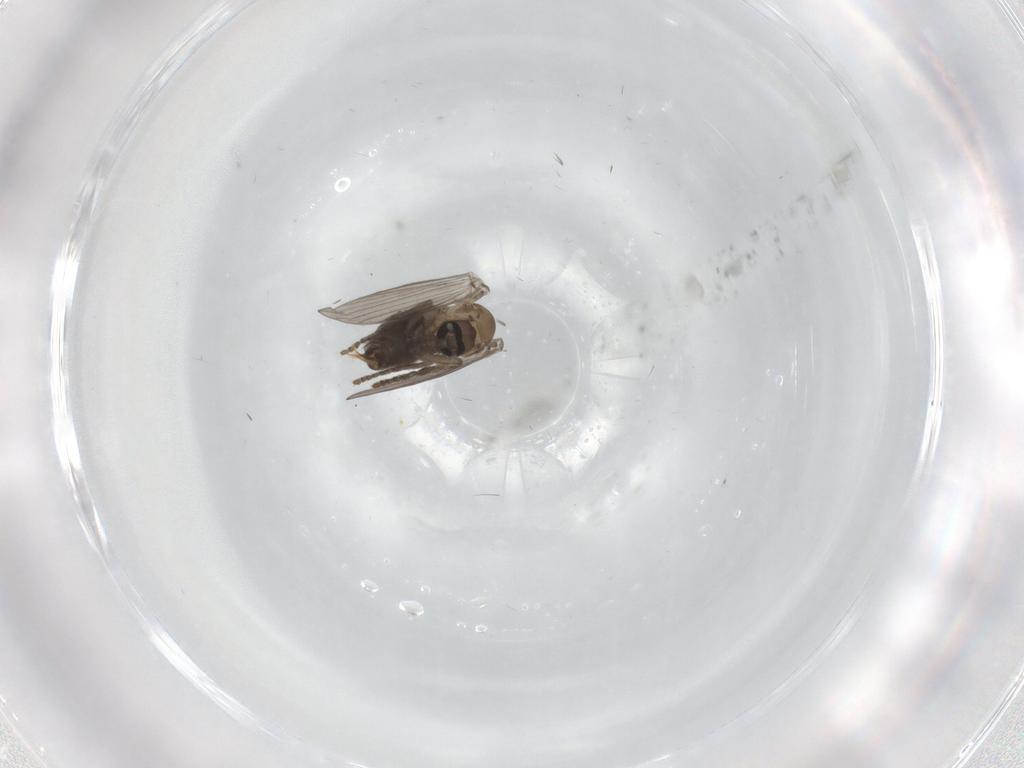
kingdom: Animalia
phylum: Arthropoda
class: Insecta
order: Diptera
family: Psychodidae
